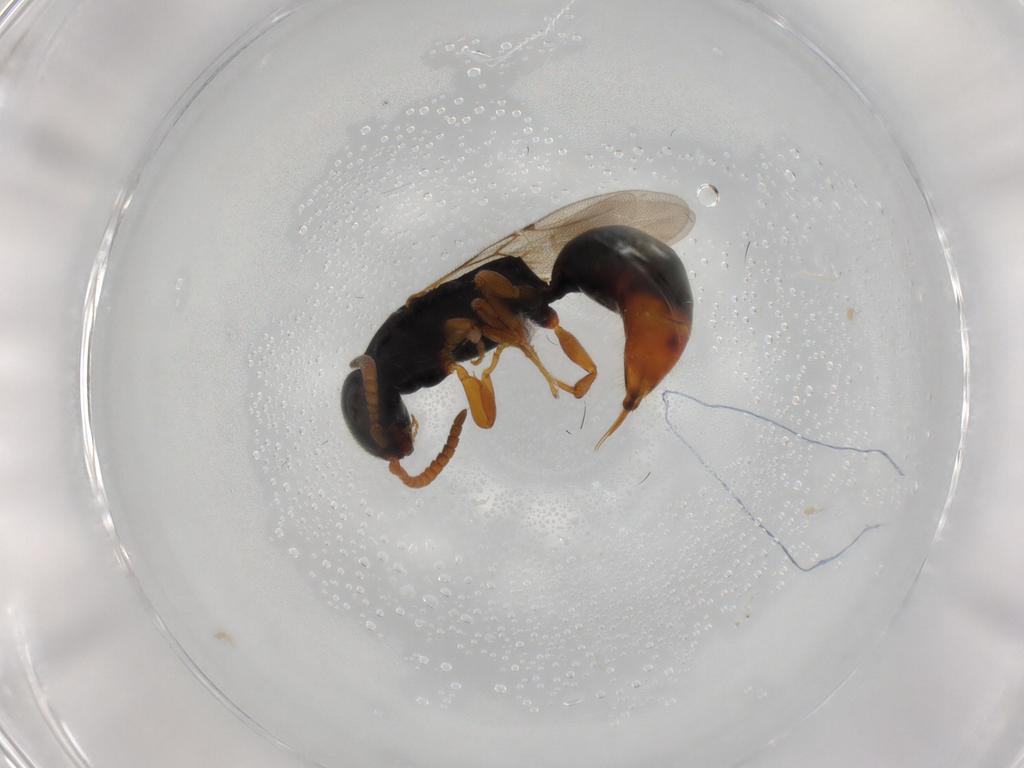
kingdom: Animalia
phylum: Arthropoda
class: Insecta
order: Hymenoptera
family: Bethylidae
